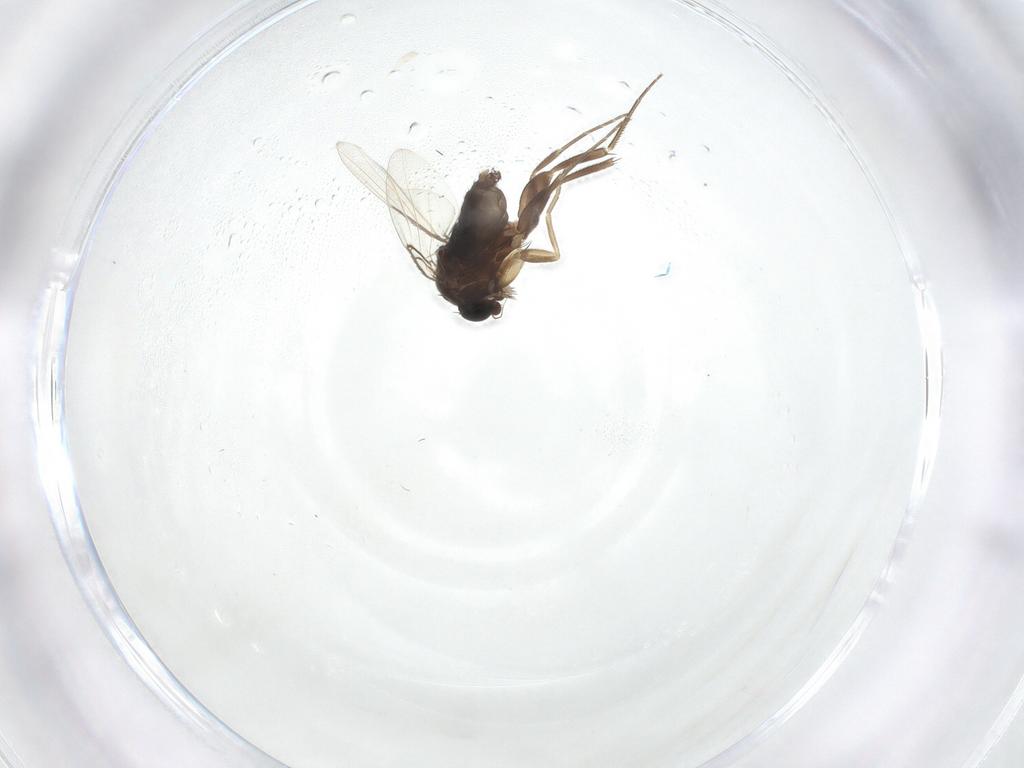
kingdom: Animalia
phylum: Arthropoda
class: Insecta
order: Diptera
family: Phoridae
